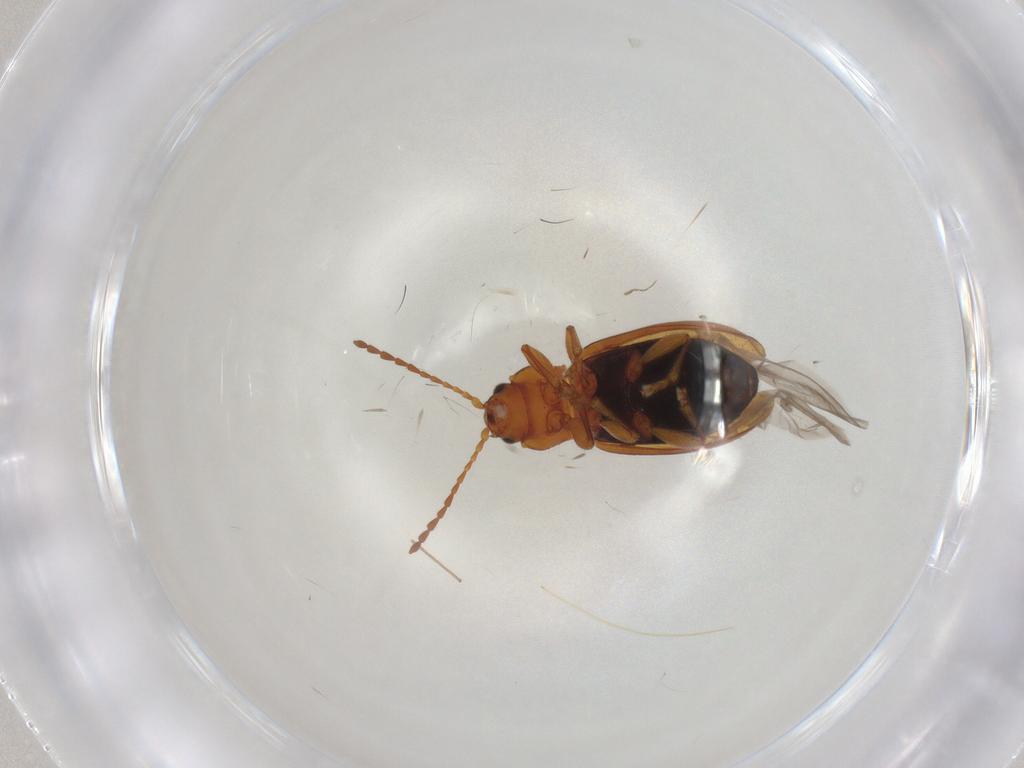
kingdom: Animalia
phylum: Arthropoda
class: Insecta
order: Coleoptera
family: Chrysomelidae
